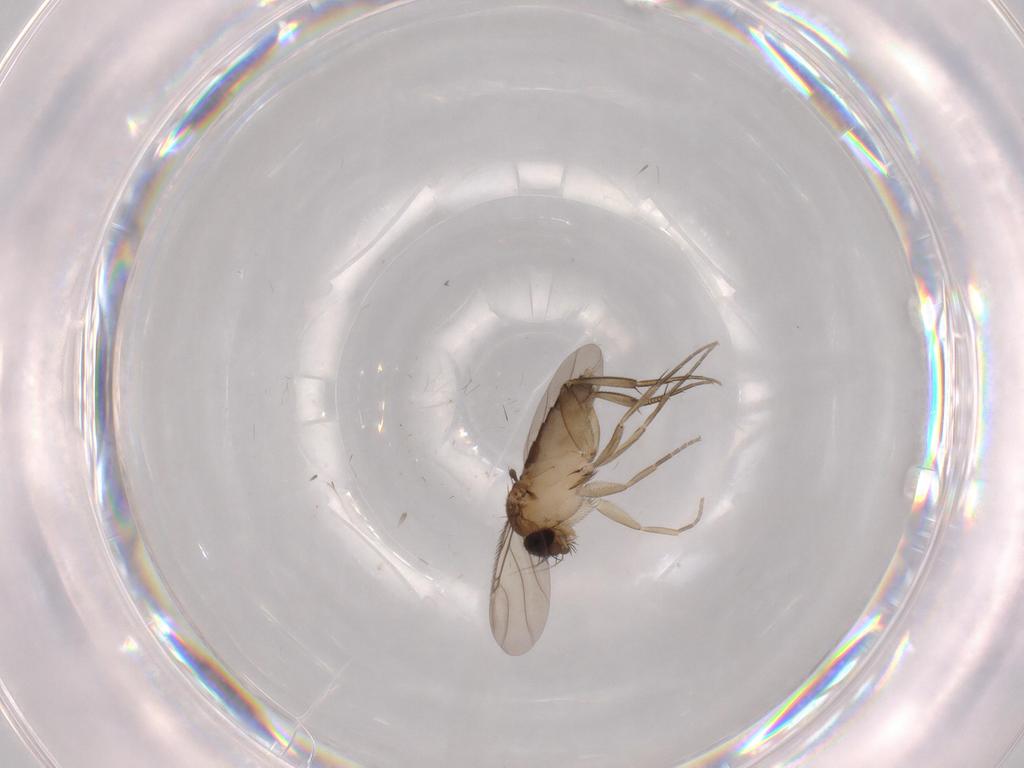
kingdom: Animalia
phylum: Arthropoda
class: Insecta
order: Diptera
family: Phoridae
